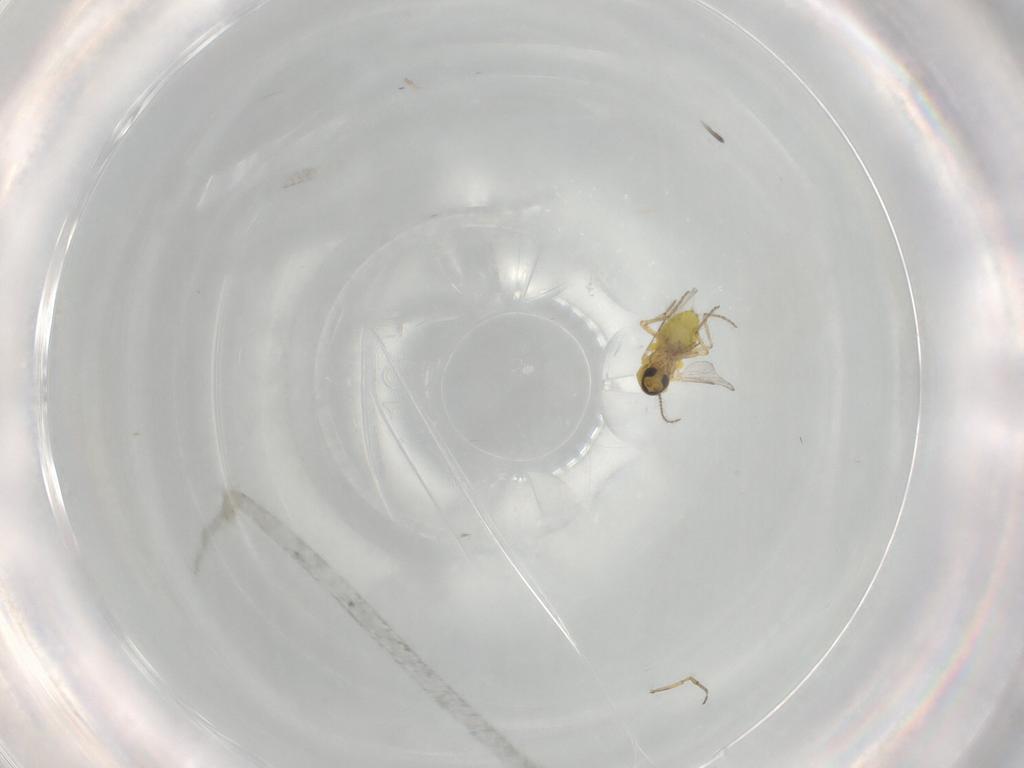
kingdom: Animalia
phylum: Arthropoda
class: Insecta
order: Diptera
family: Ceratopogonidae
